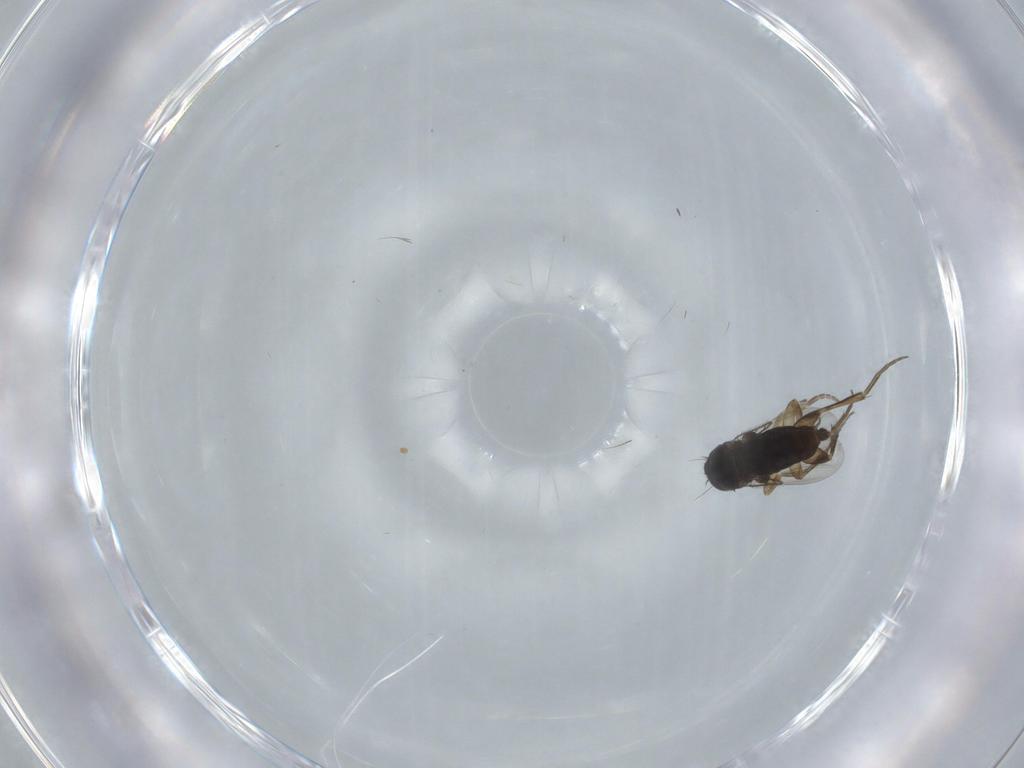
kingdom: Animalia
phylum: Arthropoda
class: Insecta
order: Diptera
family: Phoridae
